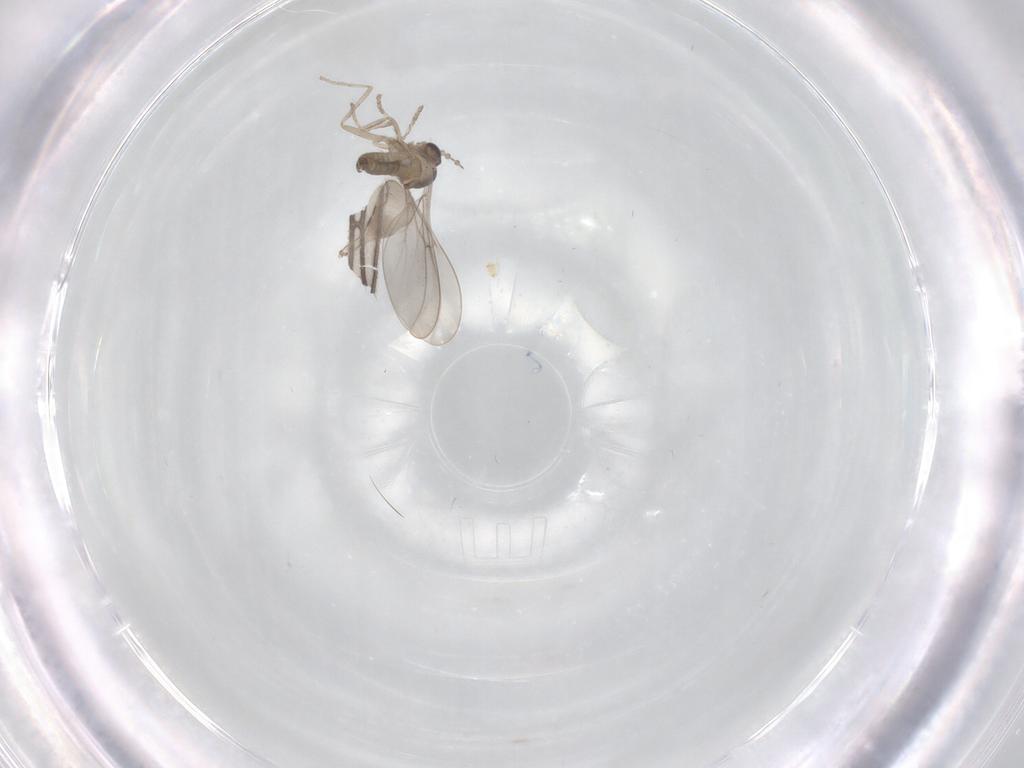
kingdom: Animalia
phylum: Arthropoda
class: Insecta
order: Diptera
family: Cecidomyiidae
